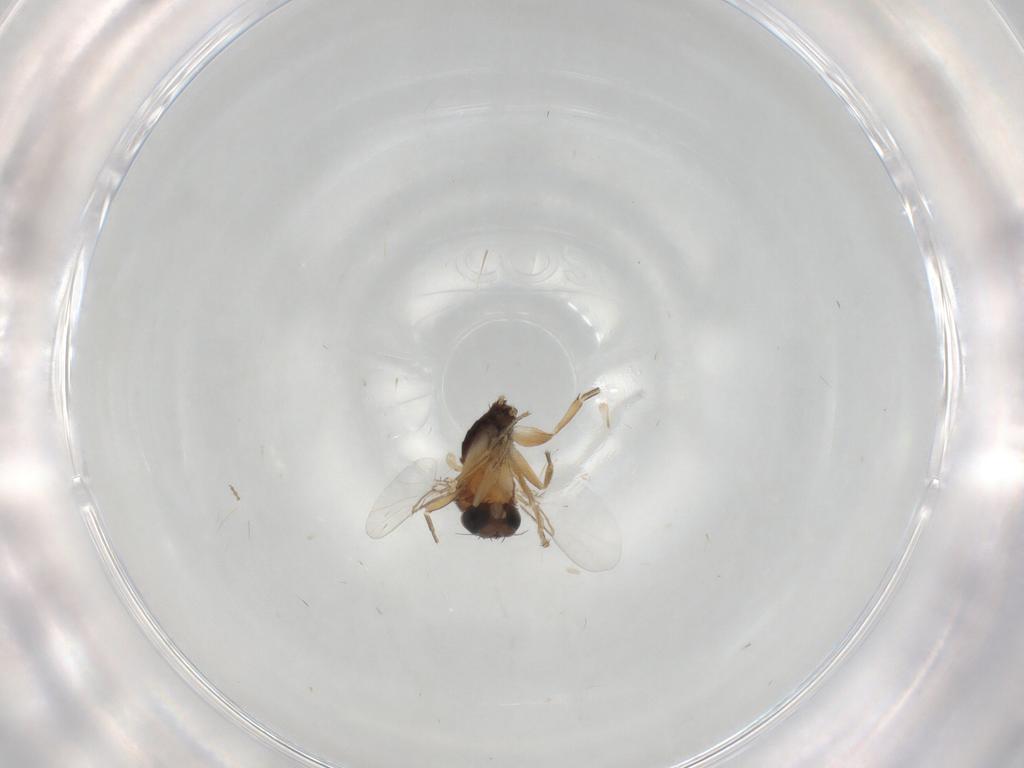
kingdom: Animalia
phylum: Arthropoda
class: Insecta
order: Diptera
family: Phoridae
